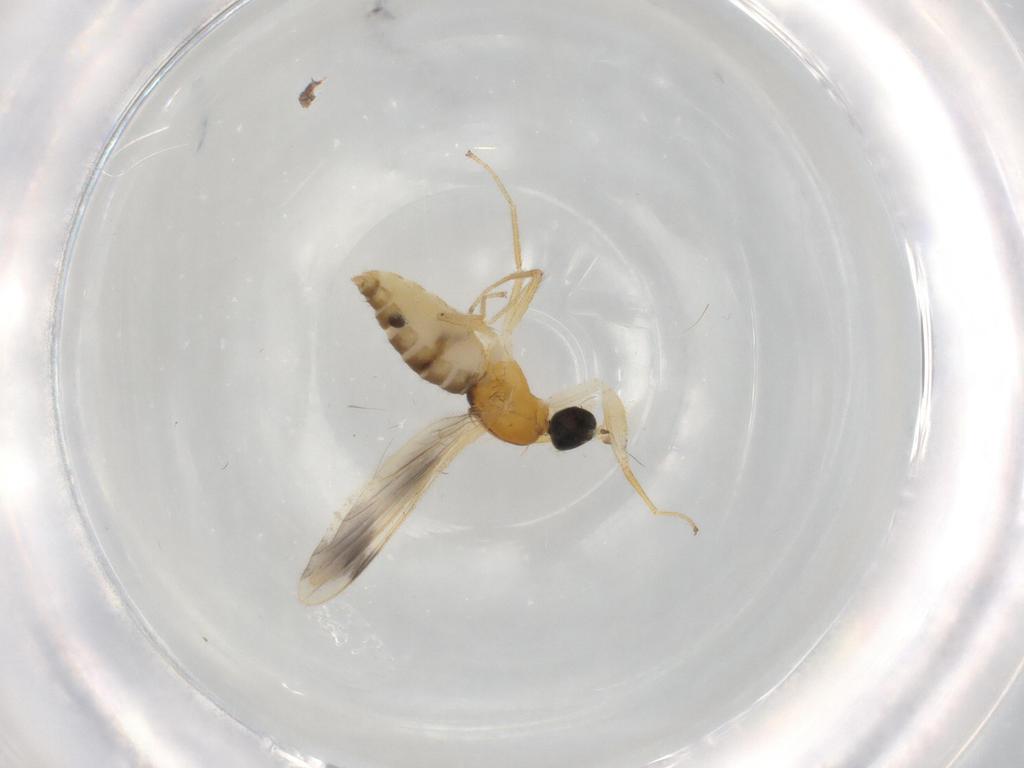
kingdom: Animalia
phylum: Arthropoda
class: Insecta
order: Diptera
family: Empididae
